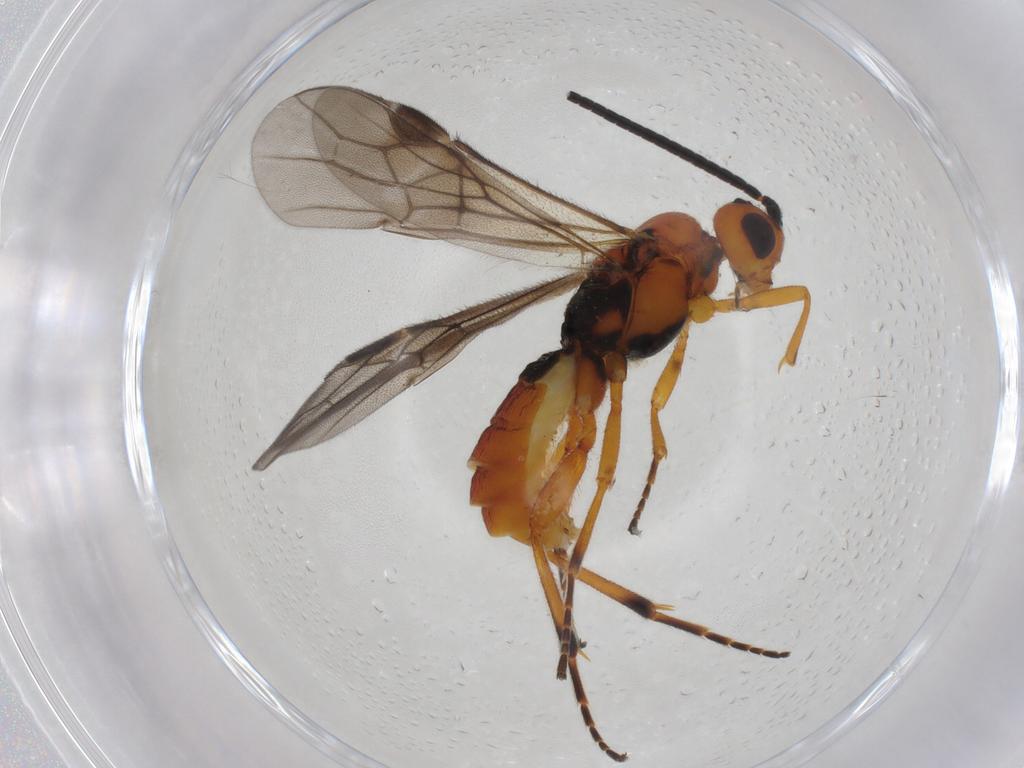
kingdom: Animalia
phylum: Arthropoda
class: Insecta
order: Hymenoptera
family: Braconidae
